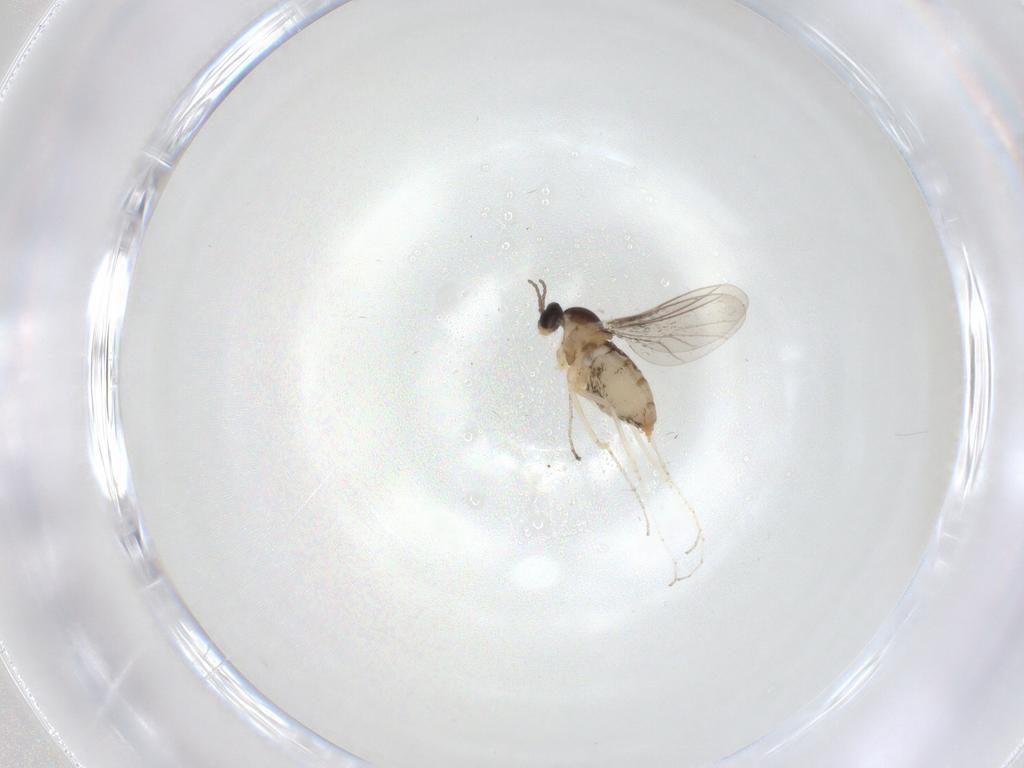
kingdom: Animalia
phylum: Arthropoda
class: Insecta
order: Diptera
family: Cecidomyiidae
